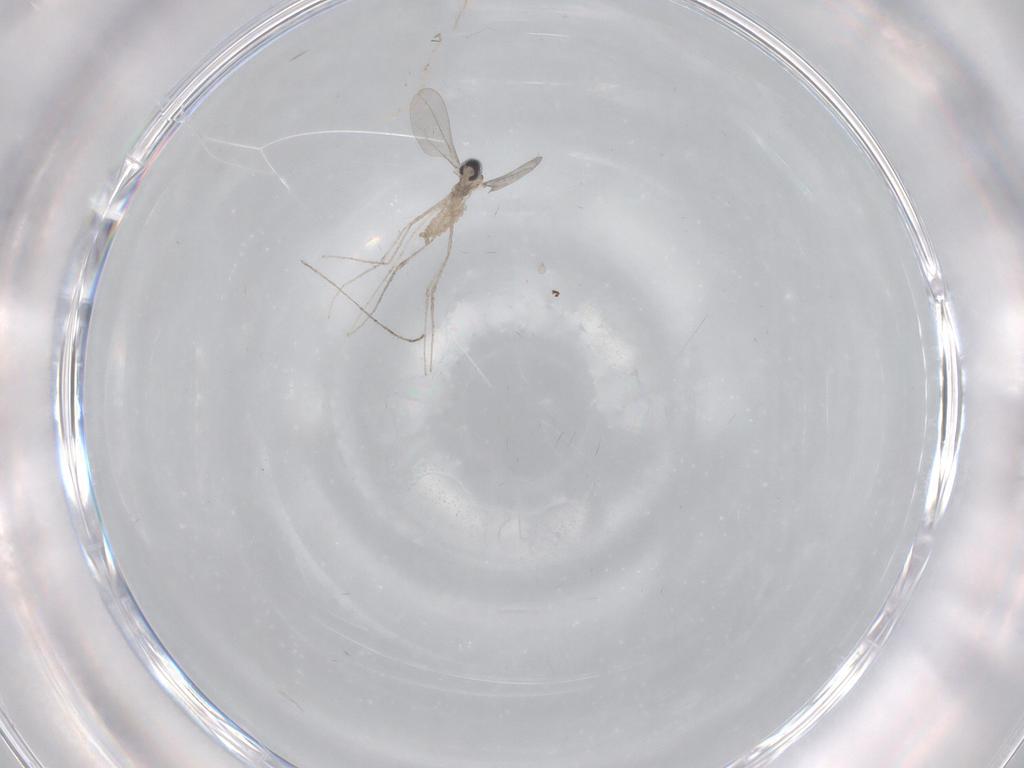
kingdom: Animalia
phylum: Arthropoda
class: Insecta
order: Diptera
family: Cecidomyiidae
